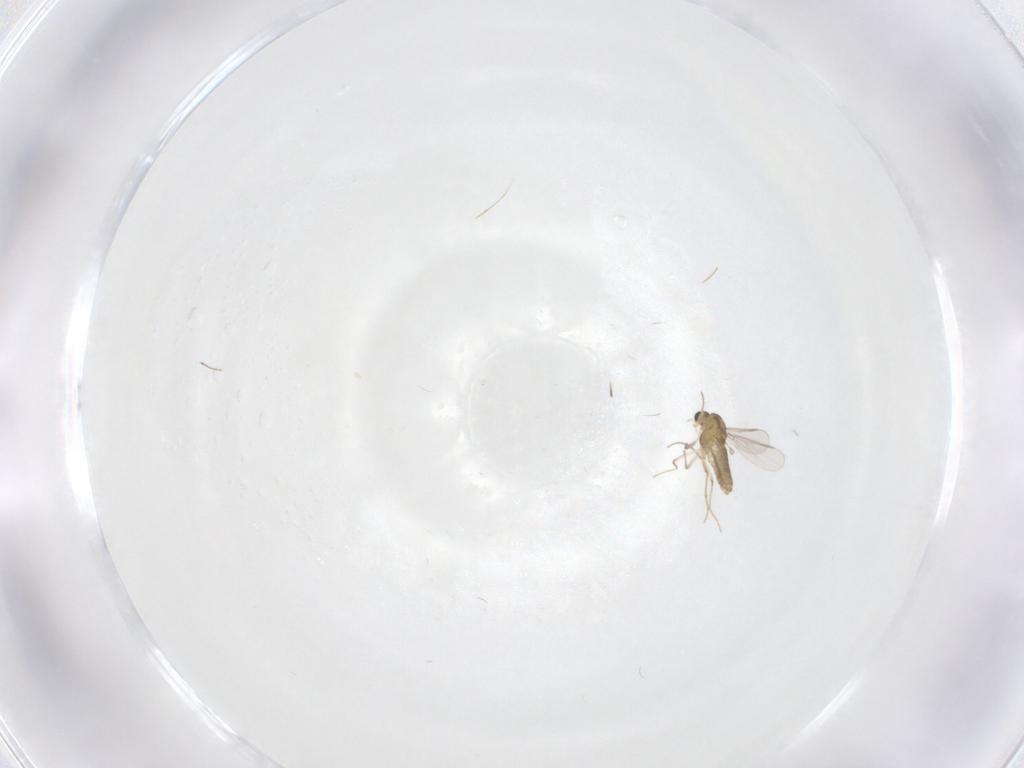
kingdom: Animalia
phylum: Arthropoda
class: Insecta
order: Diptera
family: Chironomidae
